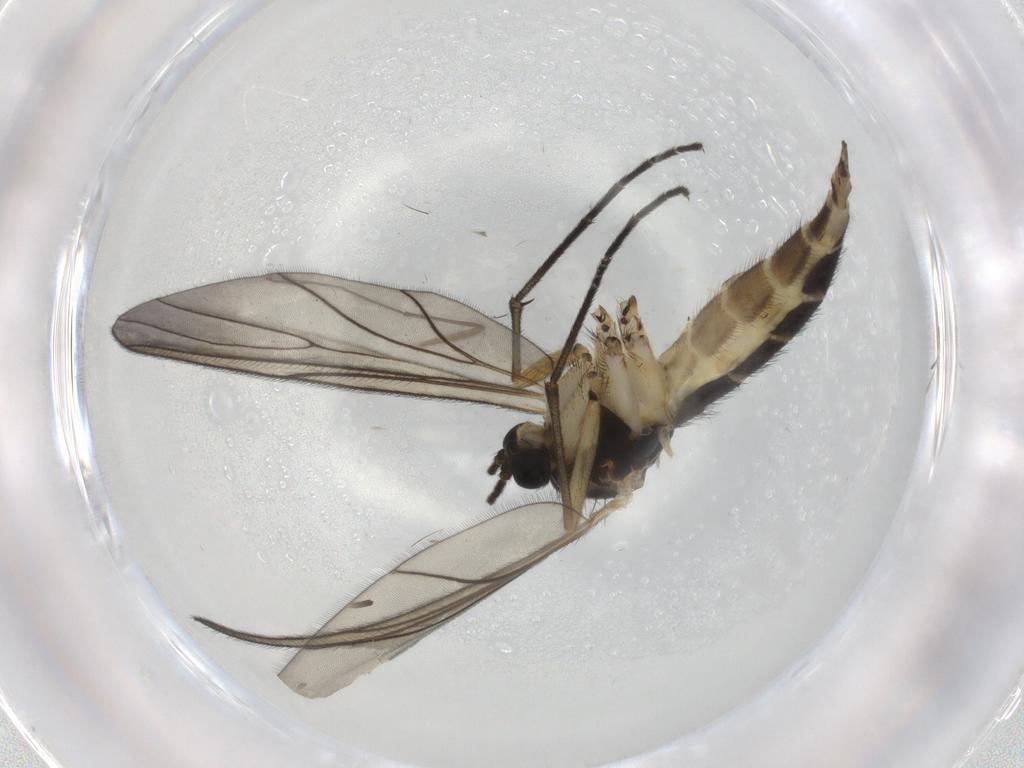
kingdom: Animalia
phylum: Arthropoda
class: Insecta
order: Diptera
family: Sciaridae
